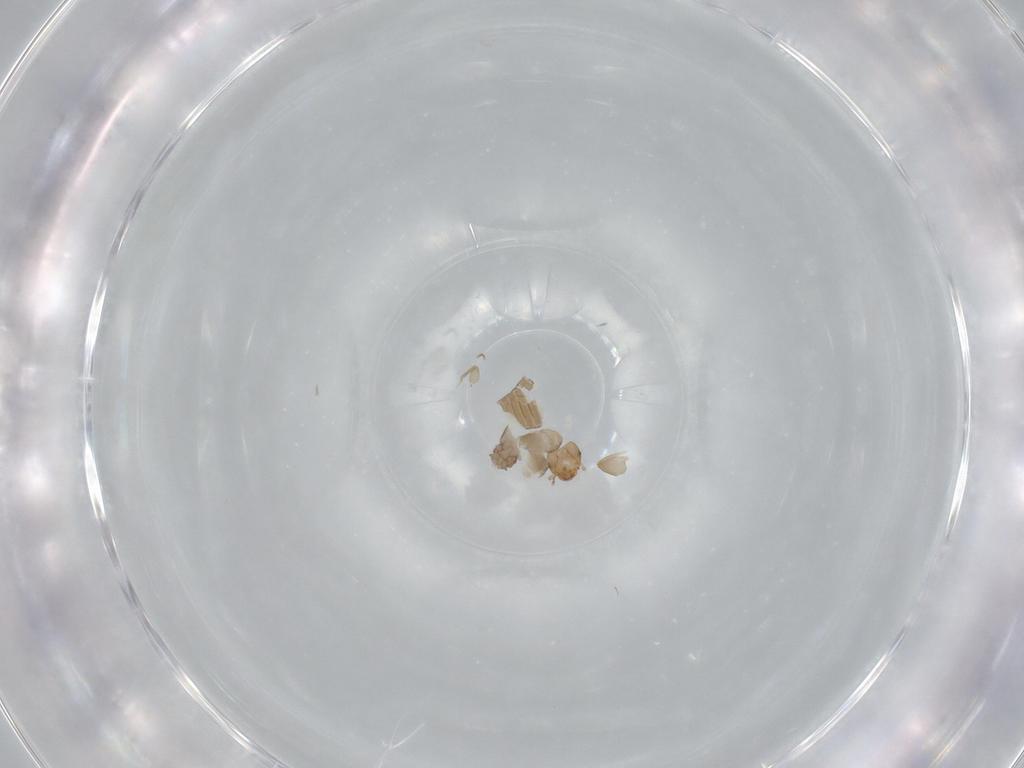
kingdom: Animalia
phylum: Arthropoda
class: Insecta
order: Psocodea
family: Liposcelididae
